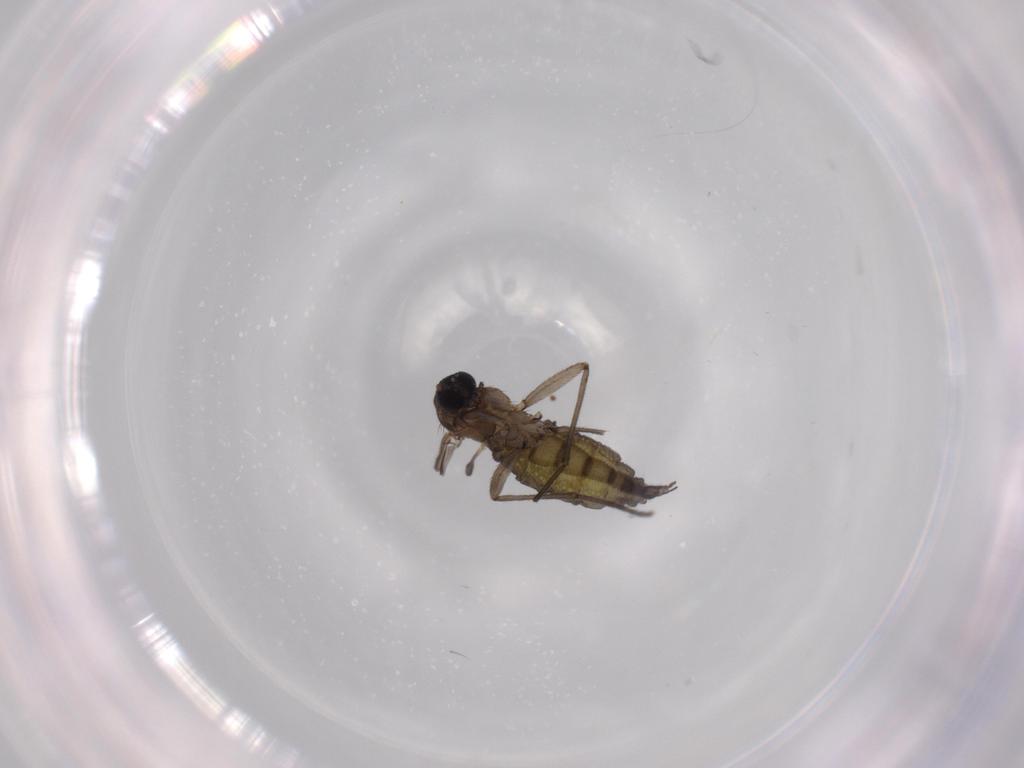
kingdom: Animalia
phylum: Arthropoda
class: Insecta
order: Diptera
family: Sciaridae
